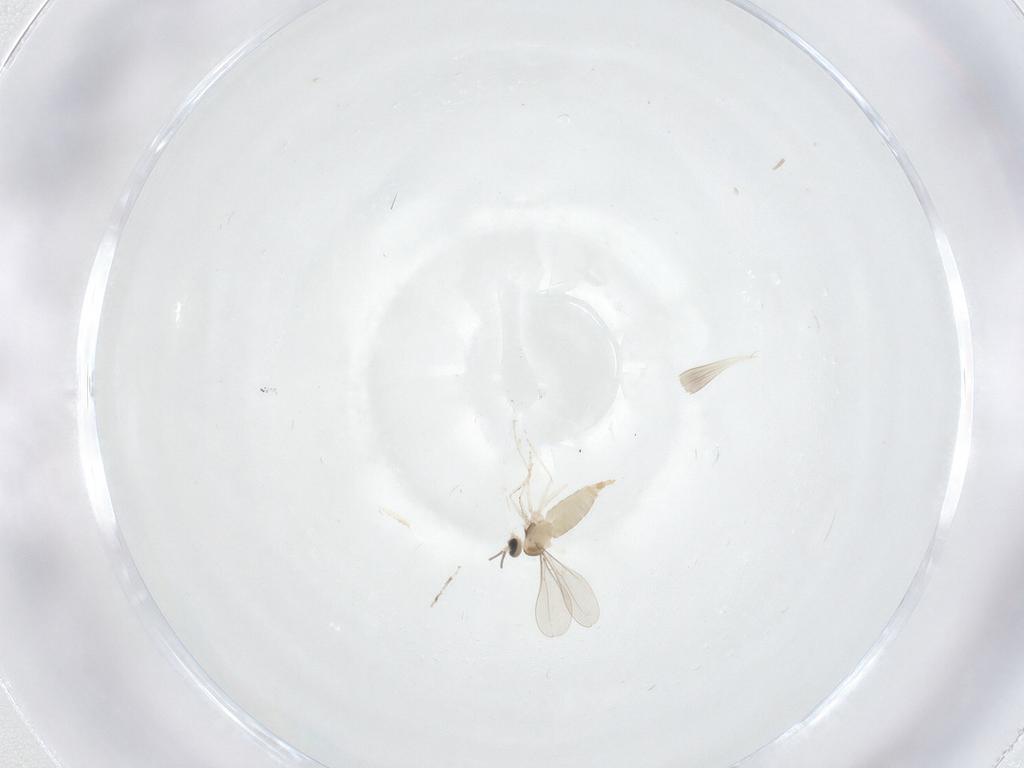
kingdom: Animalia
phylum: Arthropoda
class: Insecta
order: Diptera
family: Cecidomyiidae
